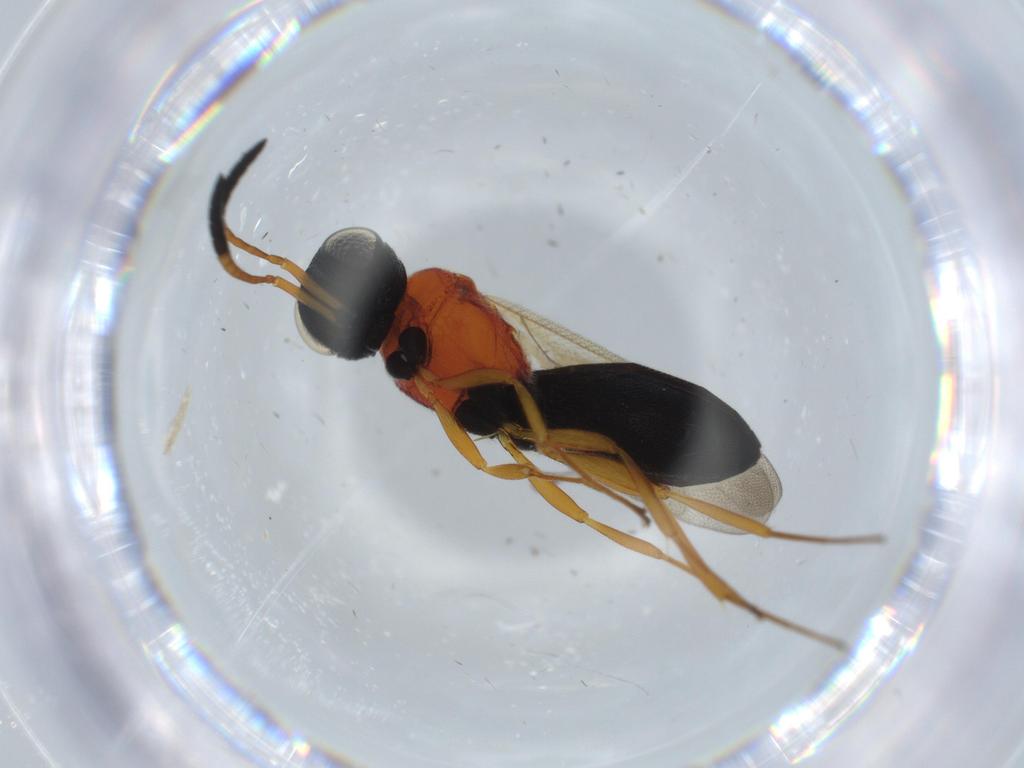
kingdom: Animalia
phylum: Arthropoda
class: Insecta
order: Hymenoptera
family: Scelionidae
